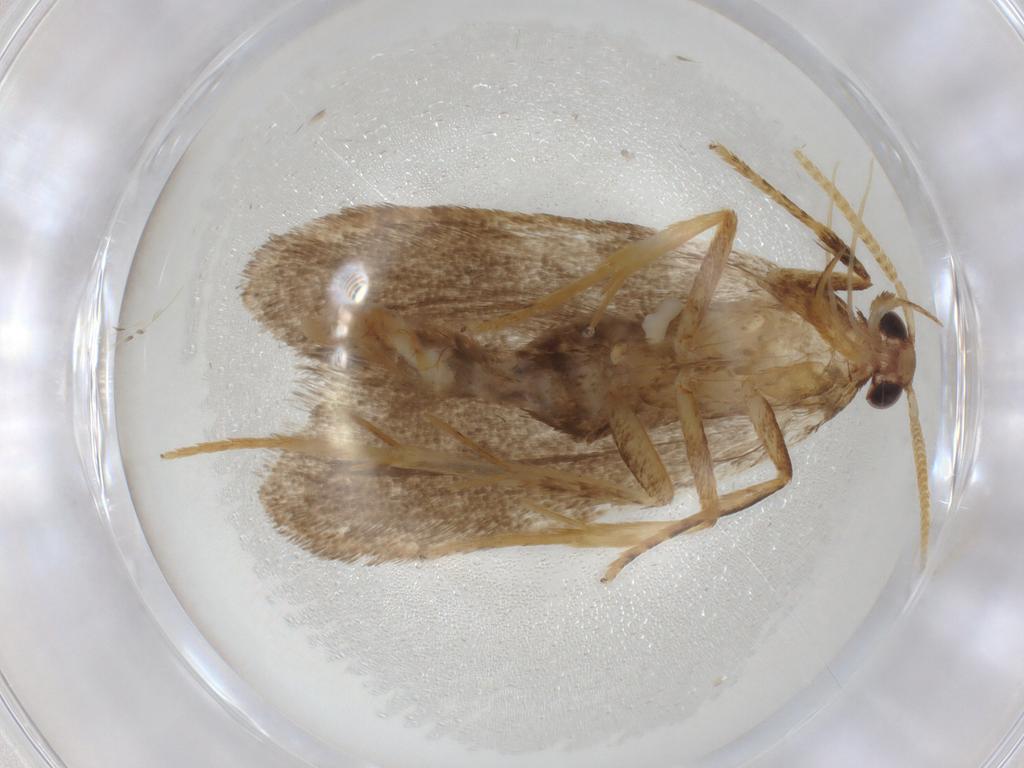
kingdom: Animalia
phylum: Arthropoda
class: Insecta
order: Lepidoptera
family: Lecithoceridae
